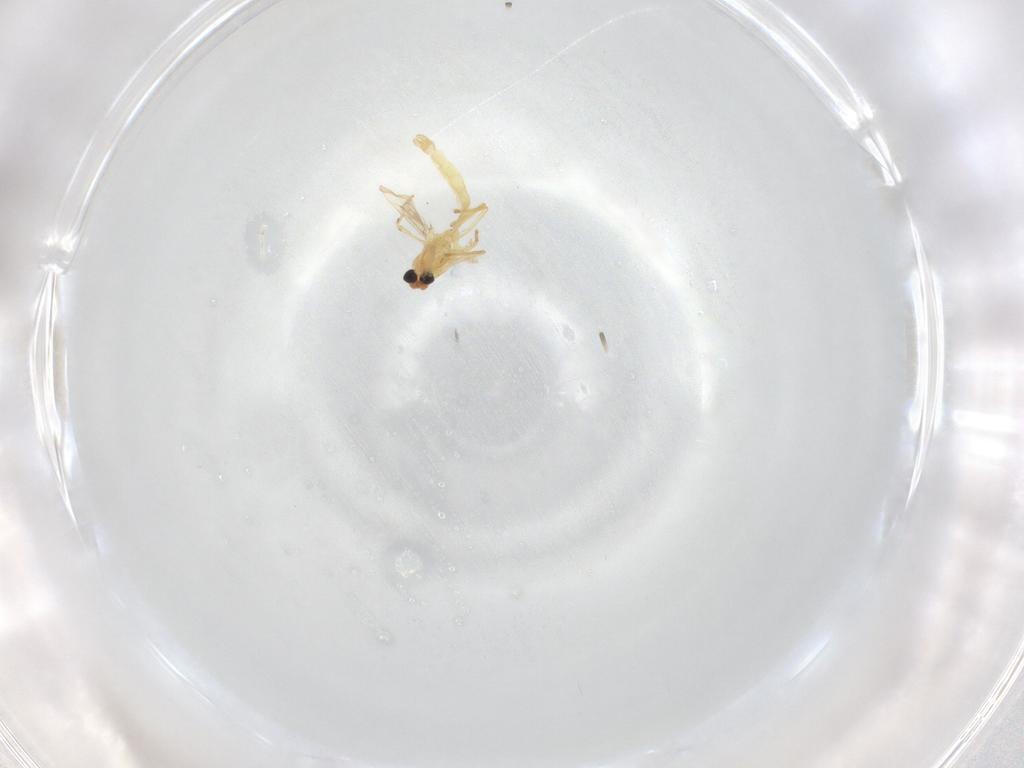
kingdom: Animalia
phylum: Arthropoda
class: Insecta
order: Diptera
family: Chironomidae
